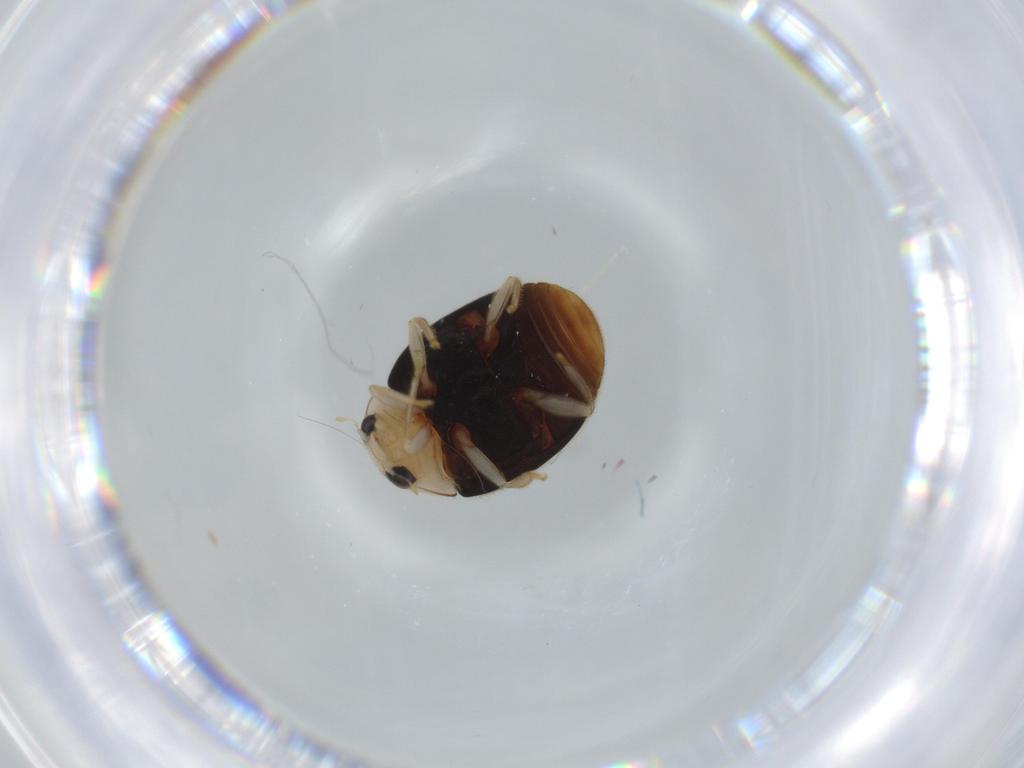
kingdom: Animalia
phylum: Arthropoda
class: Insecta
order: Coleoptera
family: Coccinellidae
